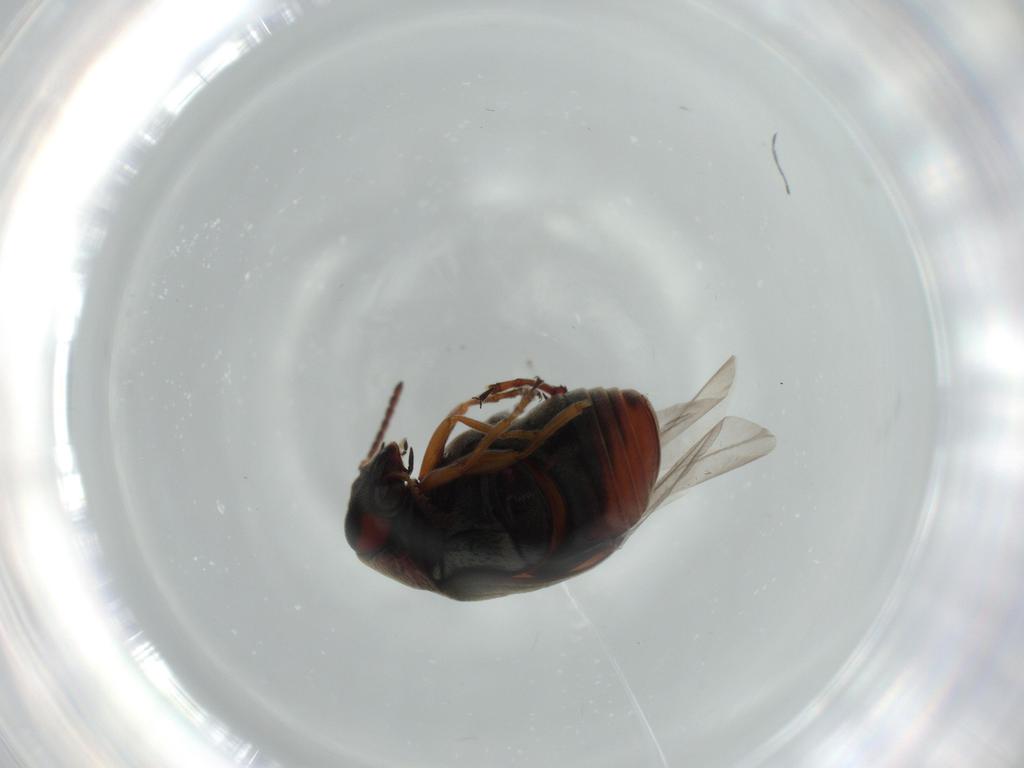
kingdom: Animalia
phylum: Arthropoda
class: Insecta
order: Coleoptera
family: Chrysomelidae
